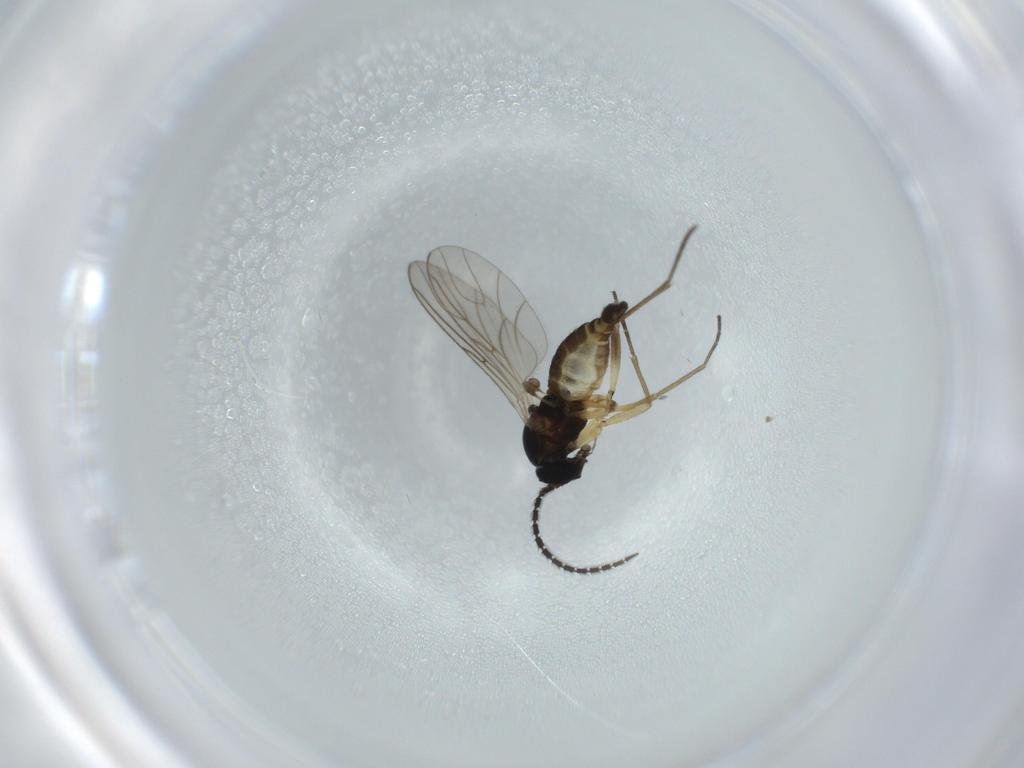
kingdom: Animalia
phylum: Arthropoda
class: Insecta
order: Diptera
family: Sciaridae
